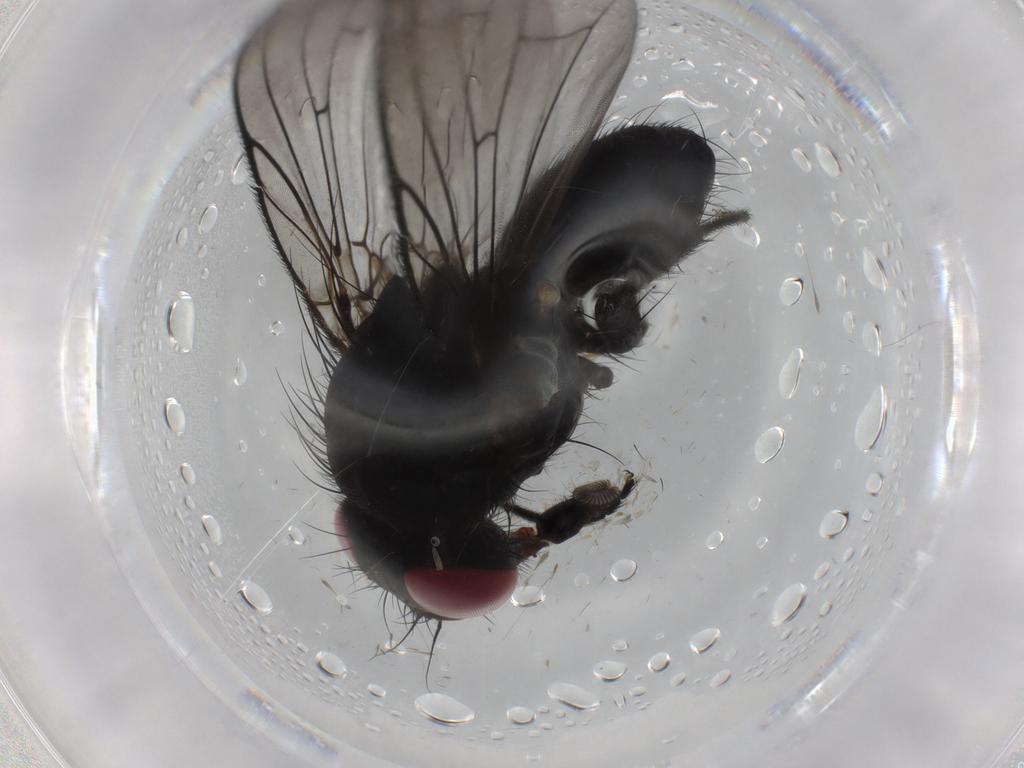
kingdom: Animalia
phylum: Arthropoda
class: Insecta
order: Diptera
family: Fannia
